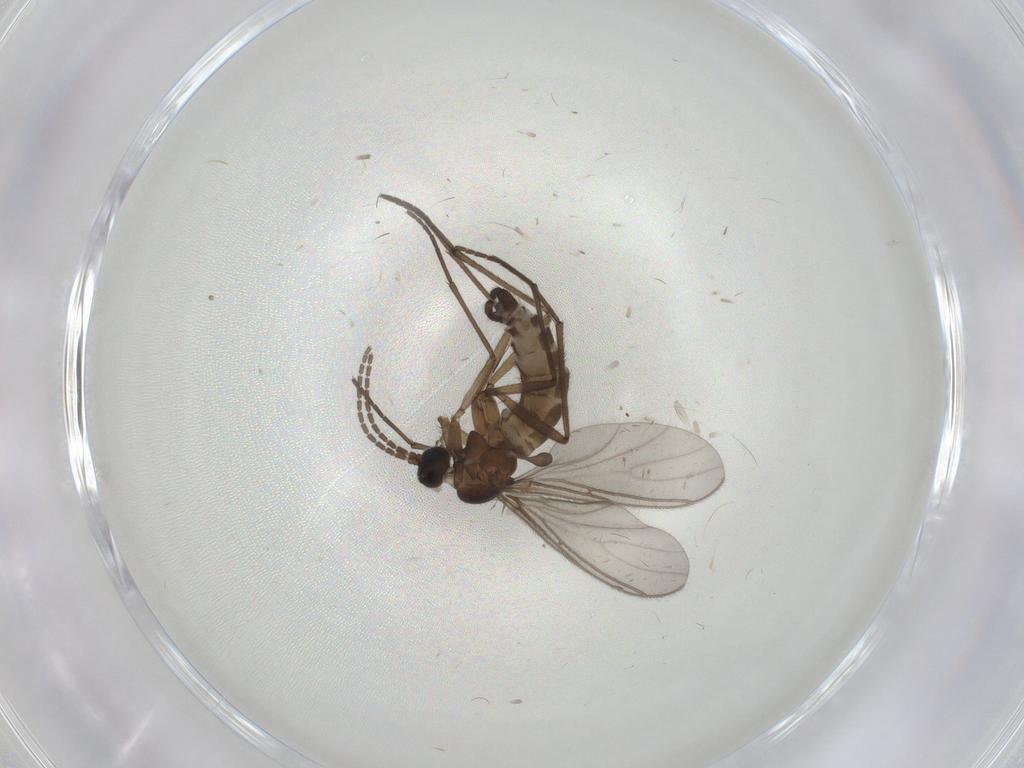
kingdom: Animalia
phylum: Arthropoda
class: Insecta
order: Diptera
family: Sciaridae
